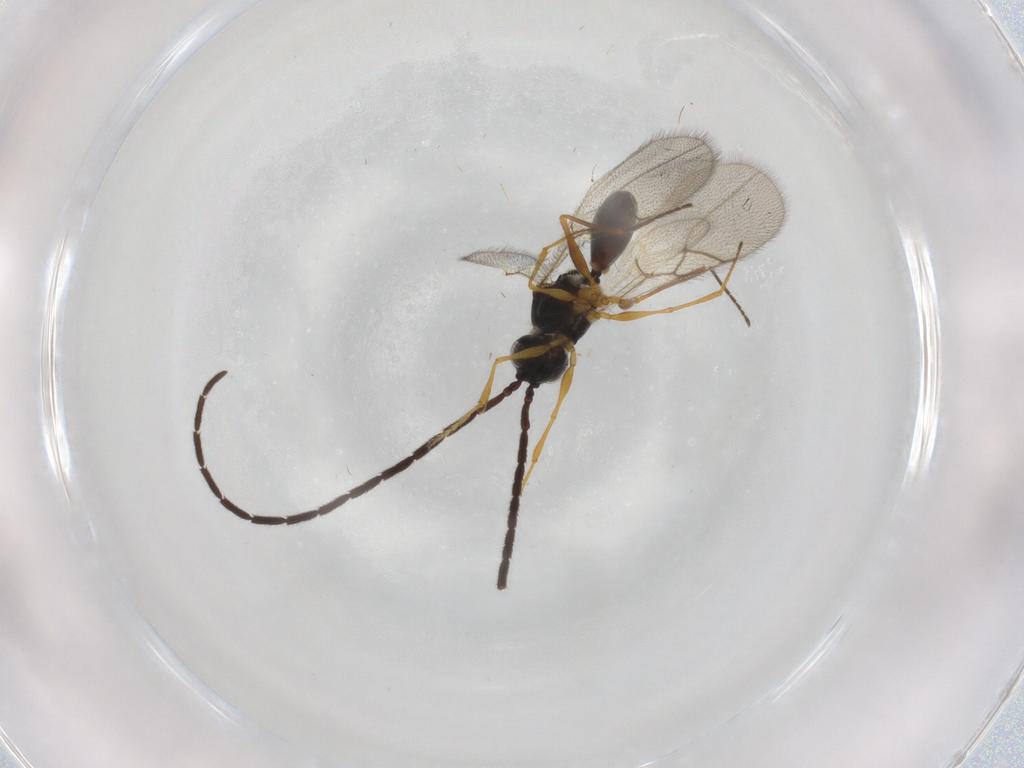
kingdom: Animalia
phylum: Arthropoda
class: Insecta
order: Hymenoptera
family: Figitidae
